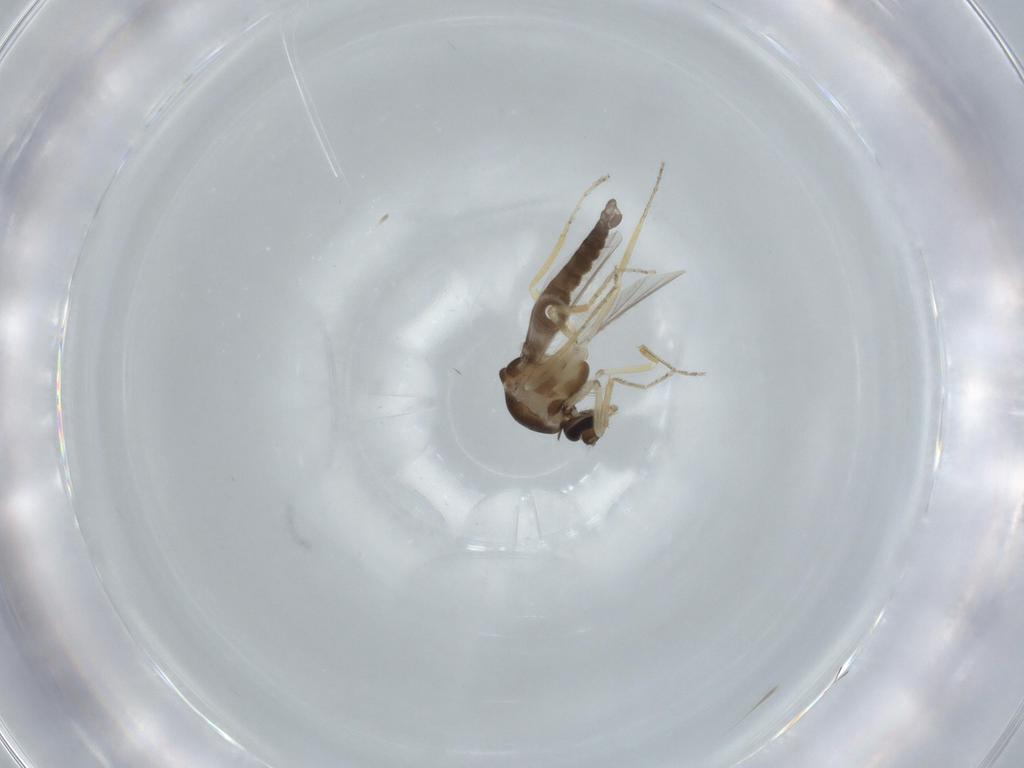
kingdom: Animalia
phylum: Arthropoda
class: Insecta
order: Diptera
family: Ceratopogonidae
